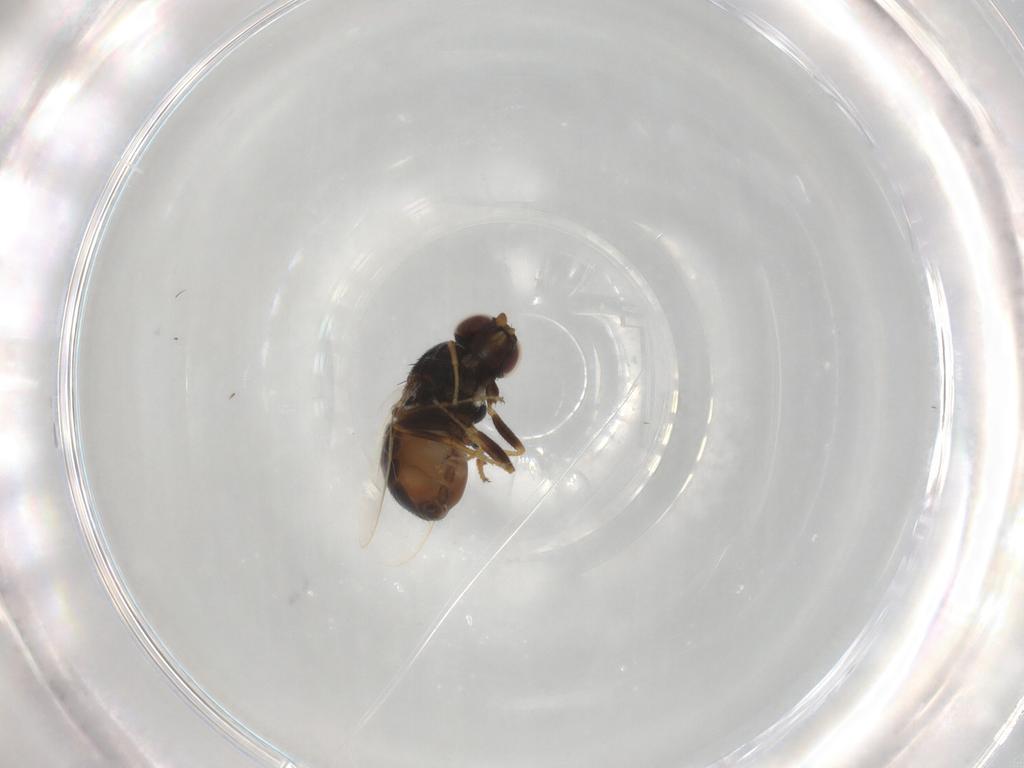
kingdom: Animalia
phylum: Arthropoda
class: Insecta
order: Diptera
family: Chloropidae
